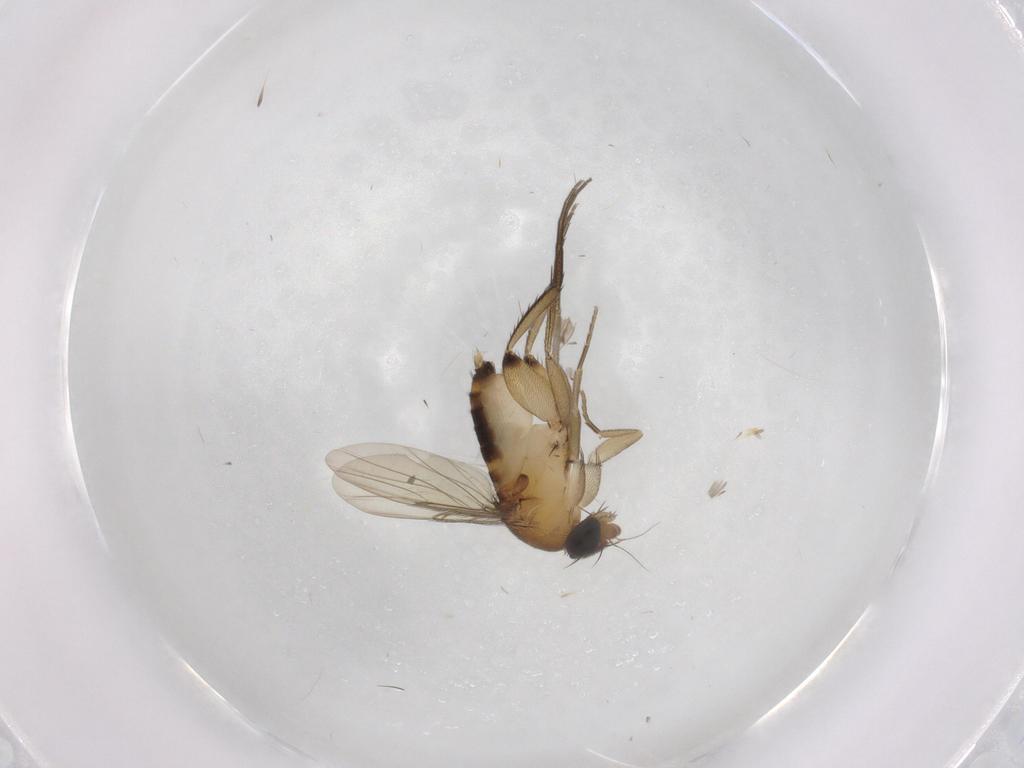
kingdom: Animalia
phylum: Arthropoda
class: Insecta
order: Diptera
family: Phoridae
